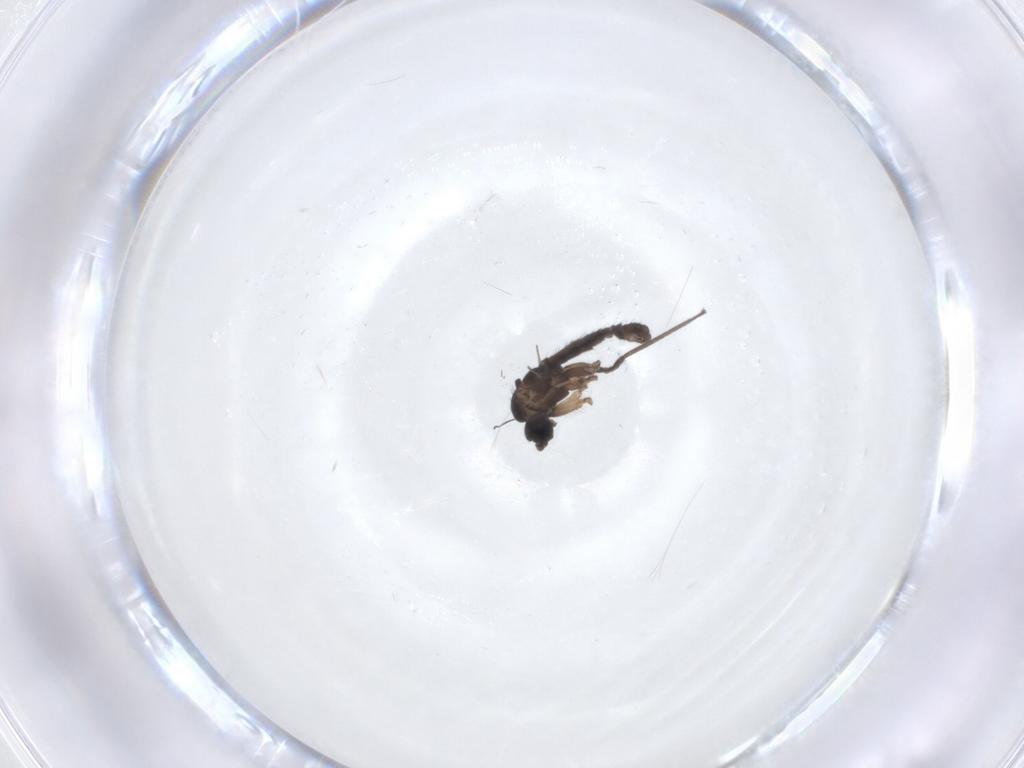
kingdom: Animalia
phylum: Arthropoda
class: Insecta
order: Diptera
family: Sciaridae
